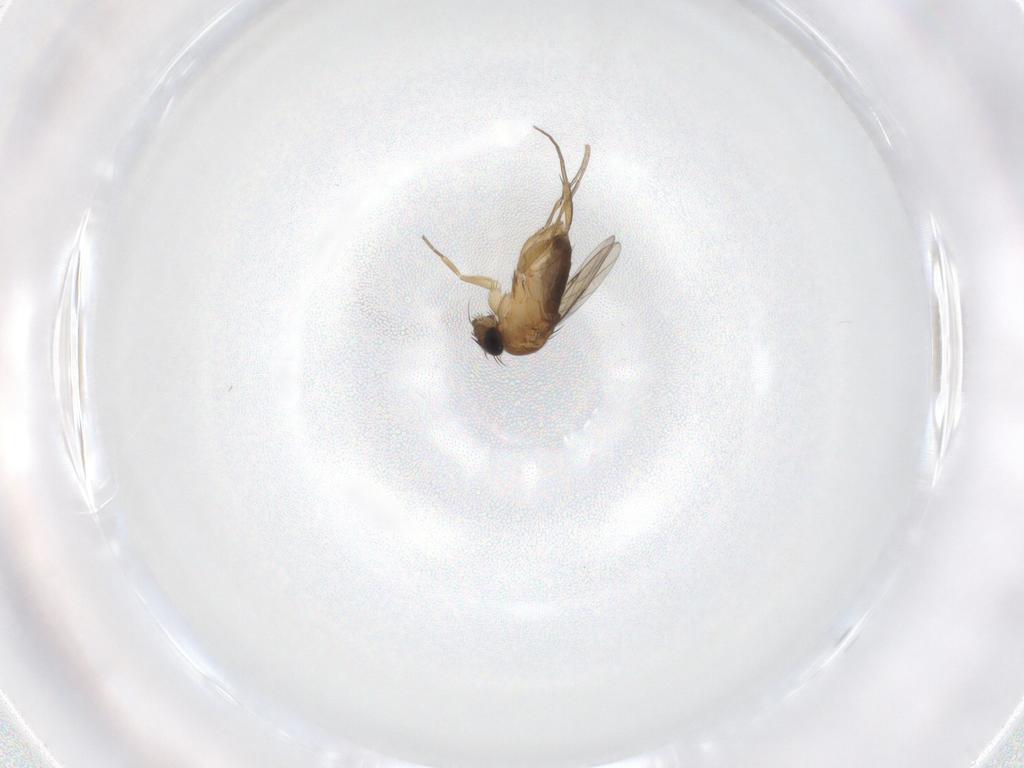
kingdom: Animalia
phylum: Arthropoda
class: Insecta
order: Diptera
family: Phoridae
